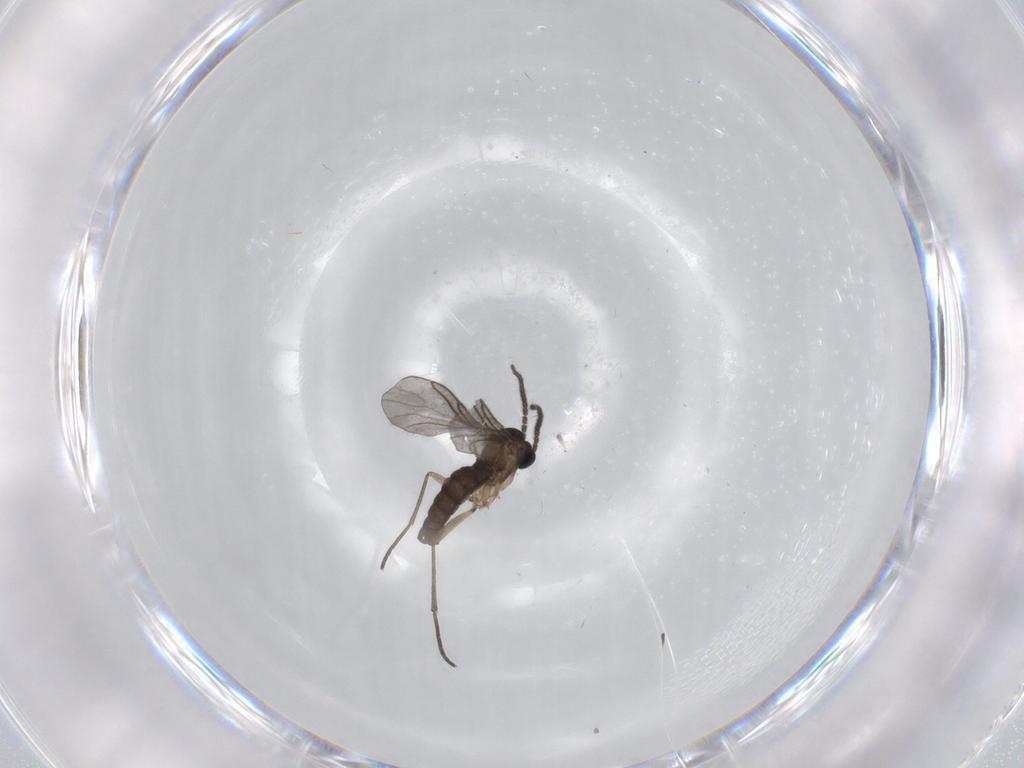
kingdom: Animalia
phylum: Arthropoda
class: Insecta
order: Diptera
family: Sciaridae
